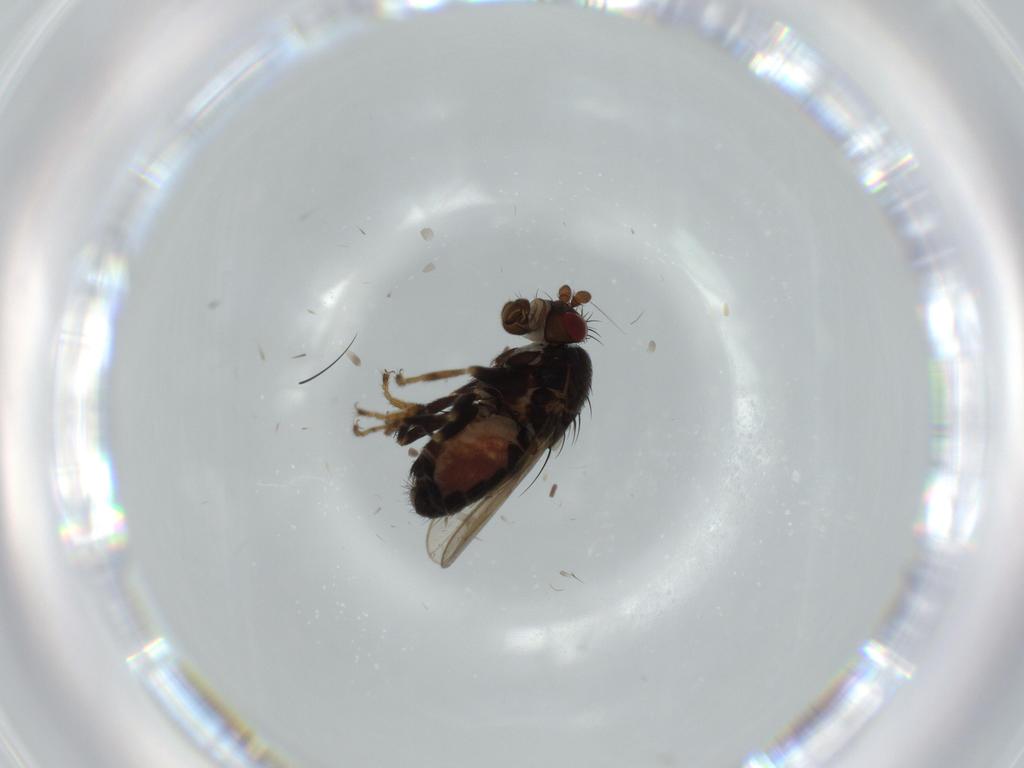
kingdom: Animalia
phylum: Arthropoda
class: Insecta
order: Diptera
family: Sphaeroceridae
